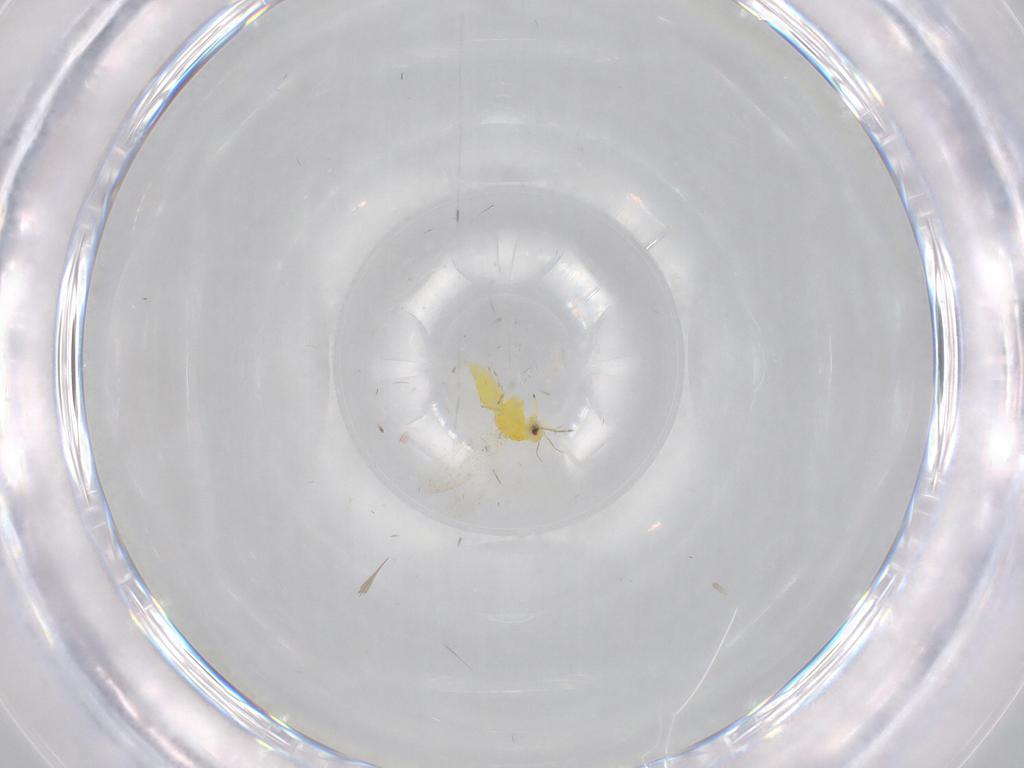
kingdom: Animalia
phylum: Arthropoda
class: Insecta
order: Hemiptera
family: Aleyrodidae
